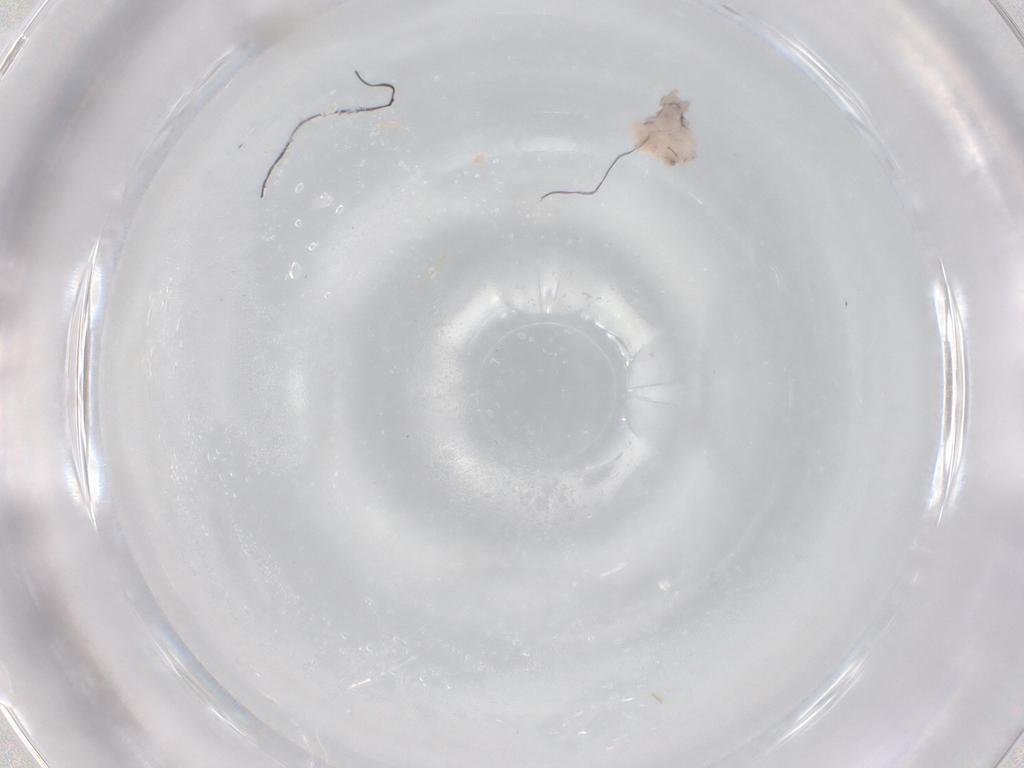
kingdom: Animalia
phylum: Arthropoda
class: Insecta
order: Diptera
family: Cecidomyiidae
